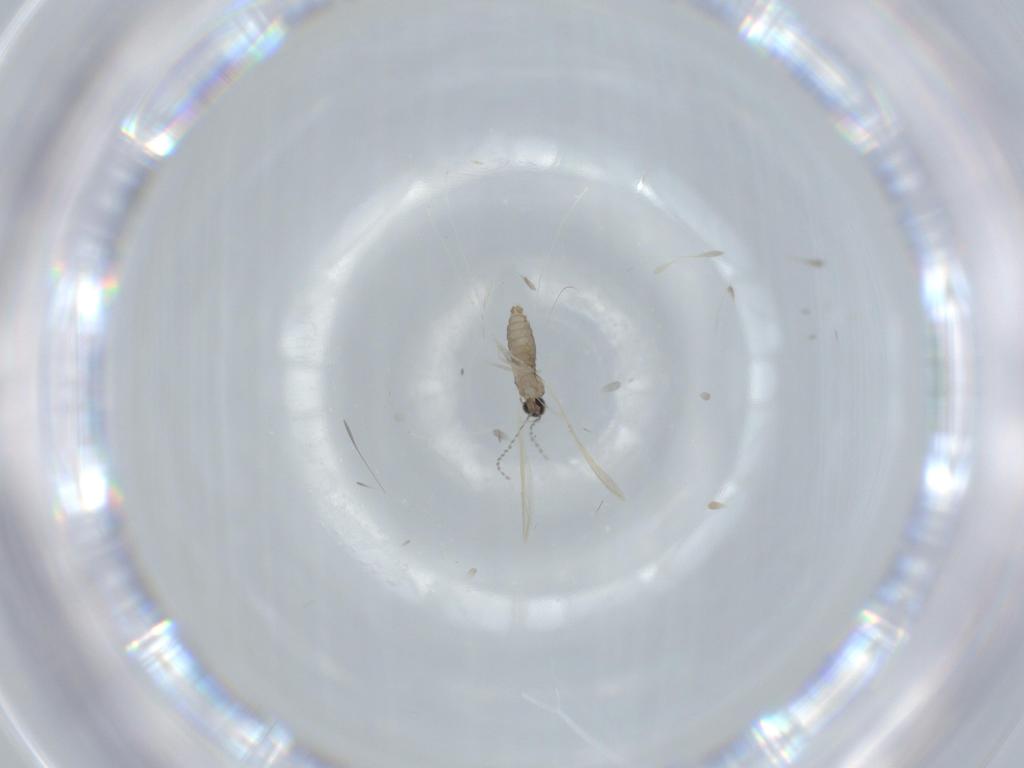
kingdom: Animalia
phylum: Arthropoda
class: Insecta
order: Diptera
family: Cecidomyiidae
